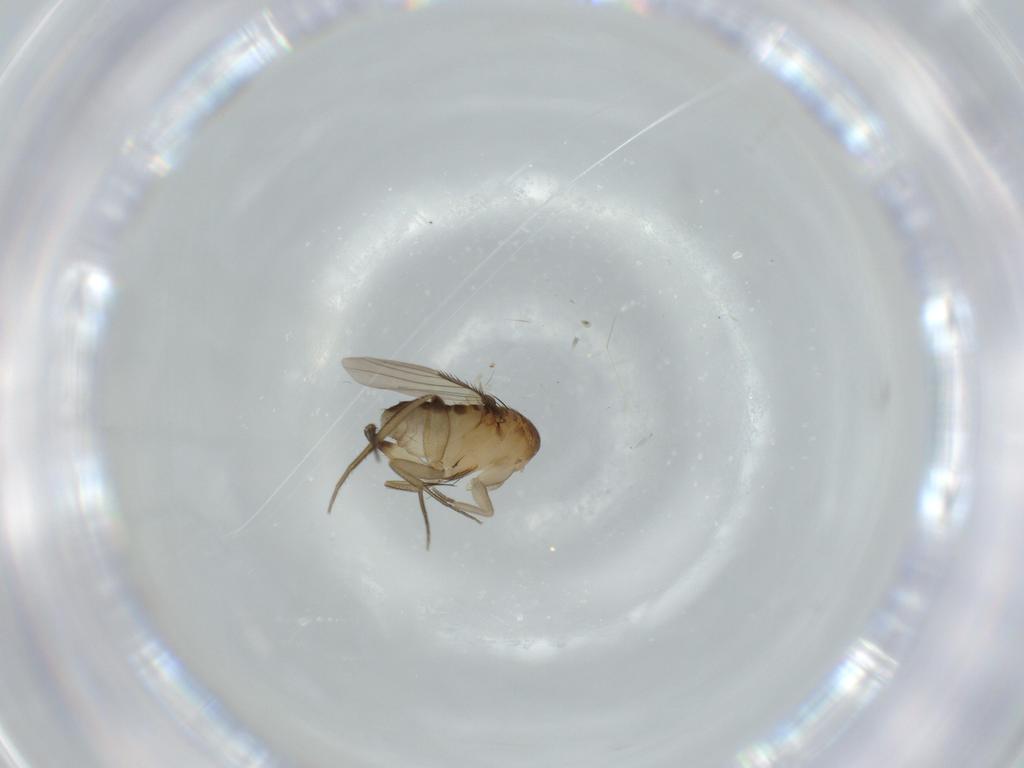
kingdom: Animalia
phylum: Arthropoda
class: Insecta
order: Diptera
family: Phoridae
